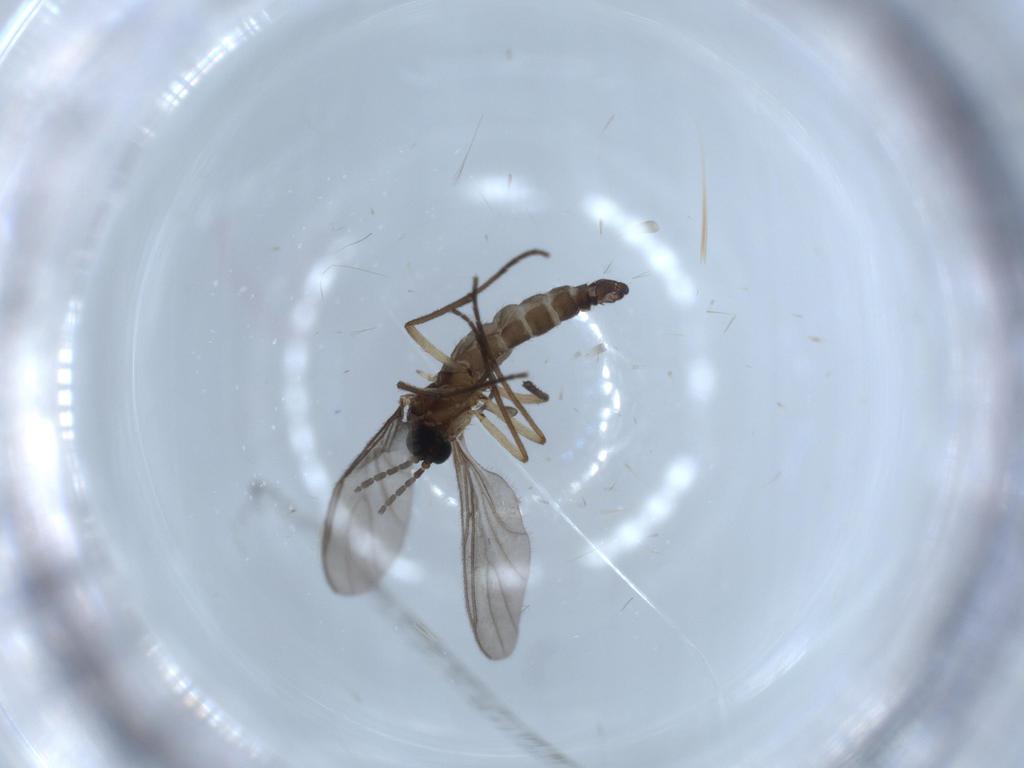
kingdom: Animalia
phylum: Arthropoda
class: Insecta
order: Diptera
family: Sciaridae
